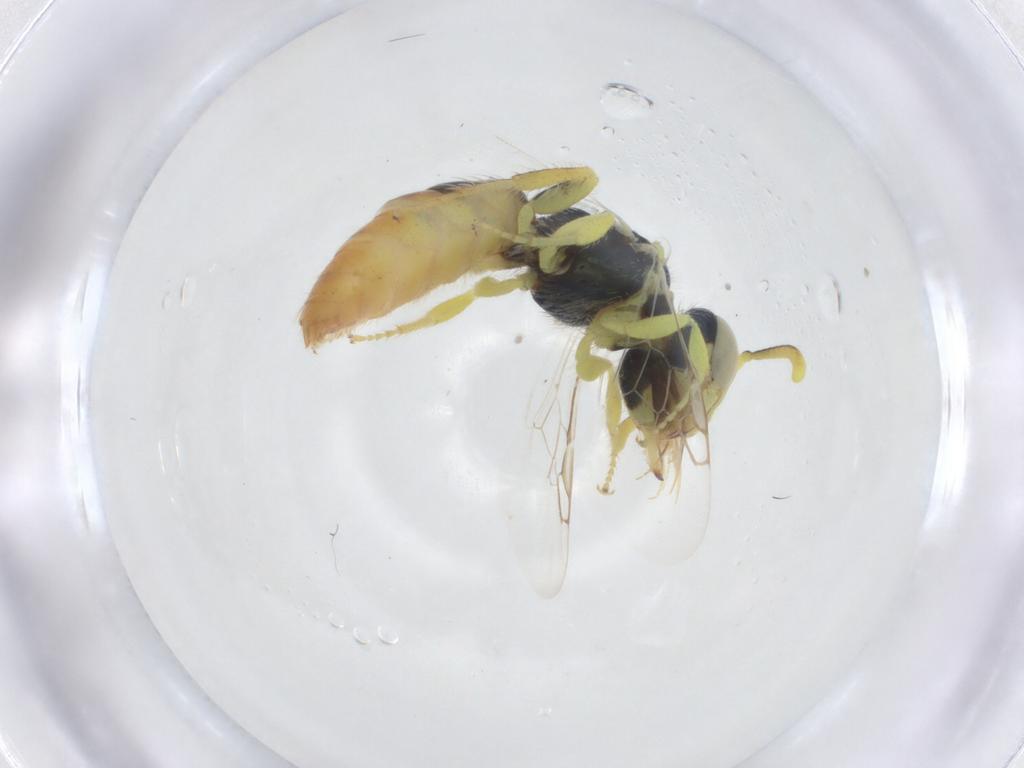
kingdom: Animalia
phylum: Arthropoda
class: Insecta
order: Hymenoptera
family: Andrenidae
